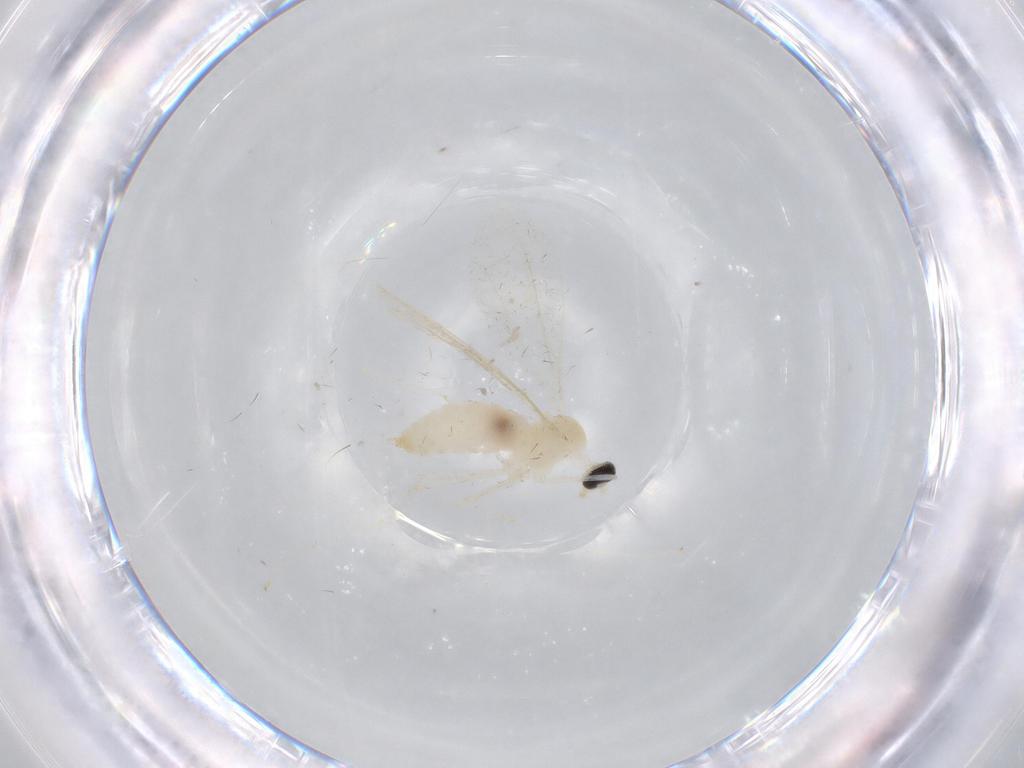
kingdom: Animalia
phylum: Arthropoda
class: Insecta
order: Diptera
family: Cecidomyiidae
